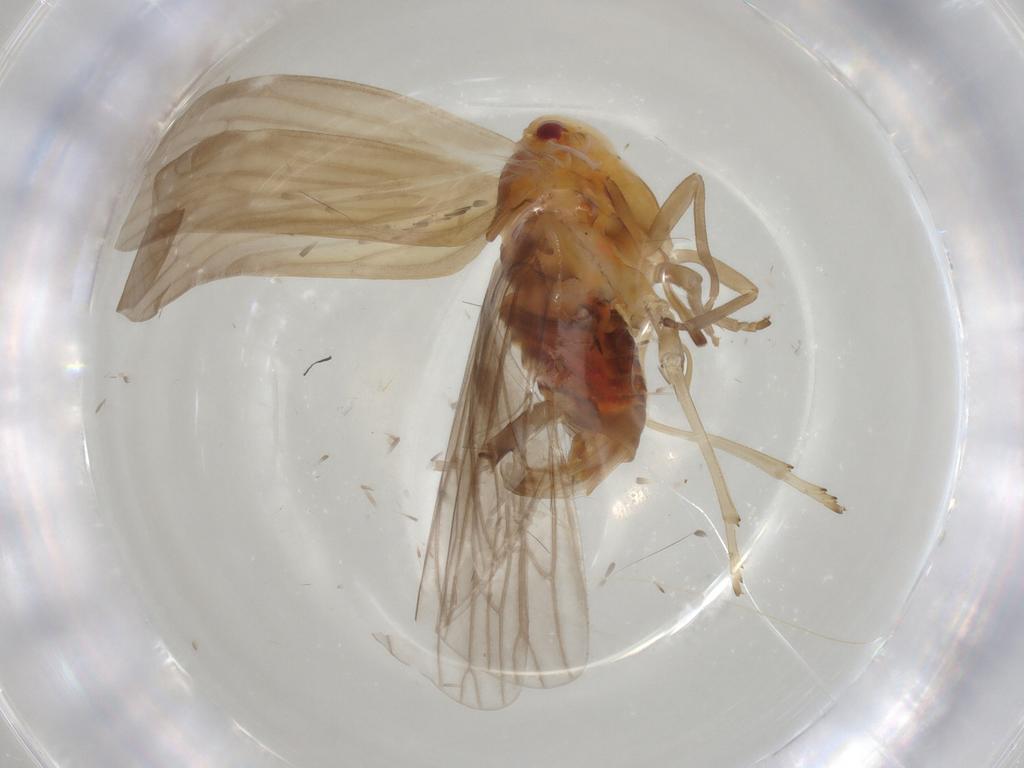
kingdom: Animalia
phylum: Arthropoda
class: Insecta
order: Hemiptera
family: Derbidae
